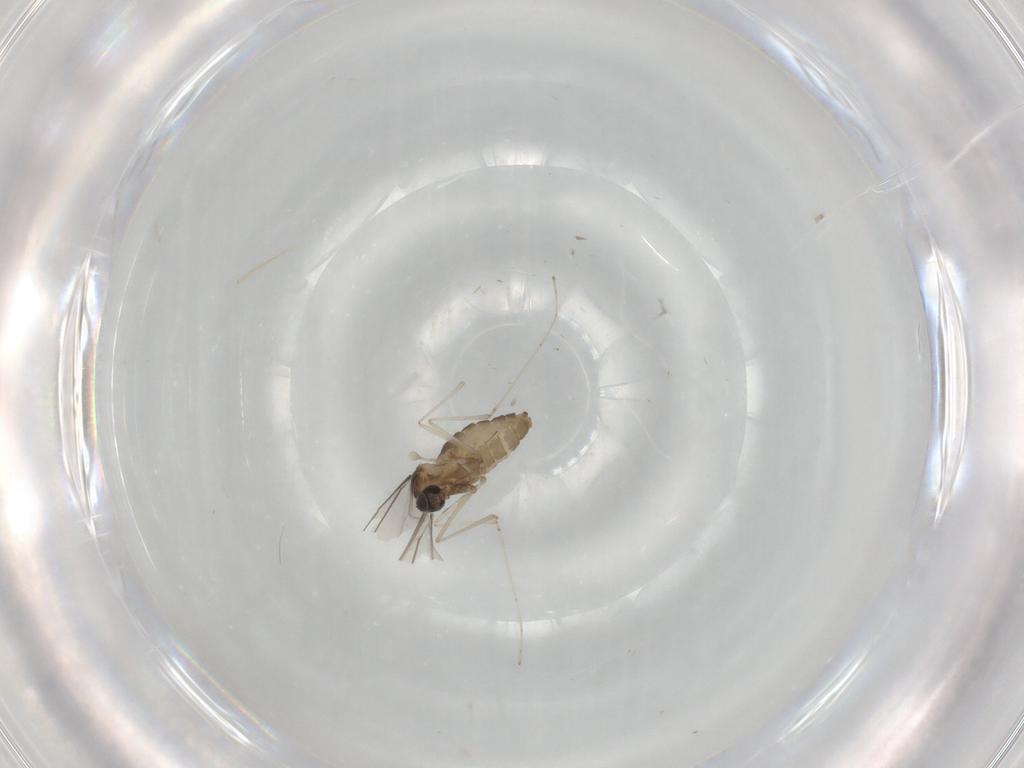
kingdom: Animalia
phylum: Arthropoda
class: Insecta
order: Diptera
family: Cecidomyiidae
